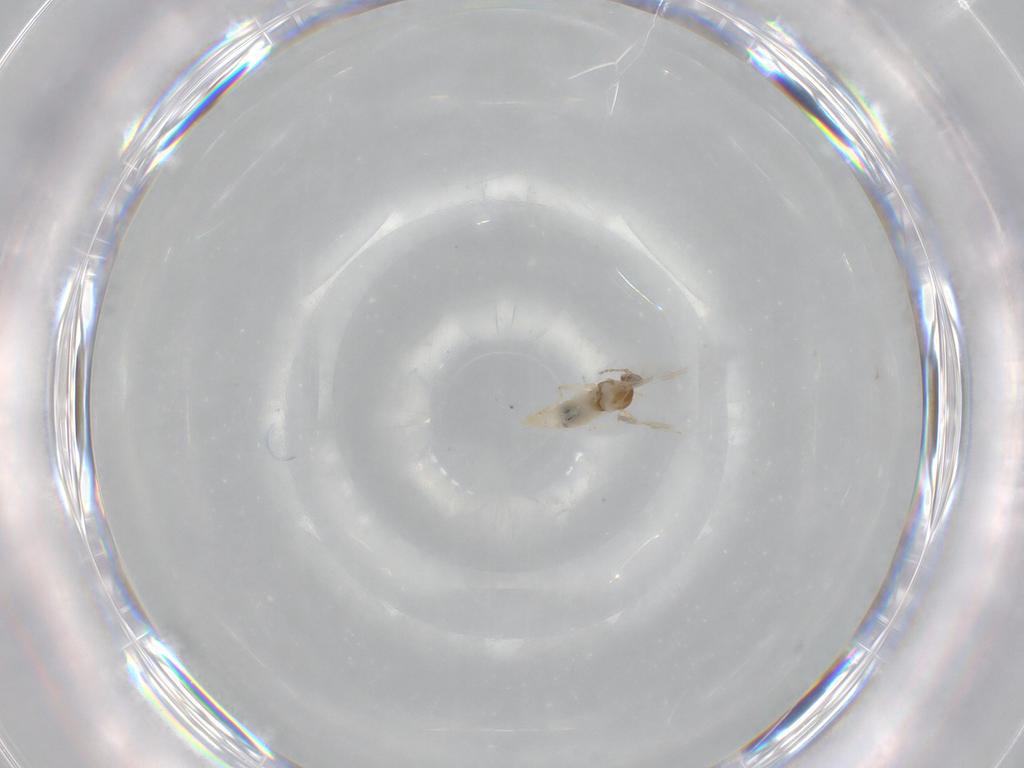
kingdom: Animalia
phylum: Arthropoda
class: Insecta
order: Diptera
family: Cecidomyiidae
